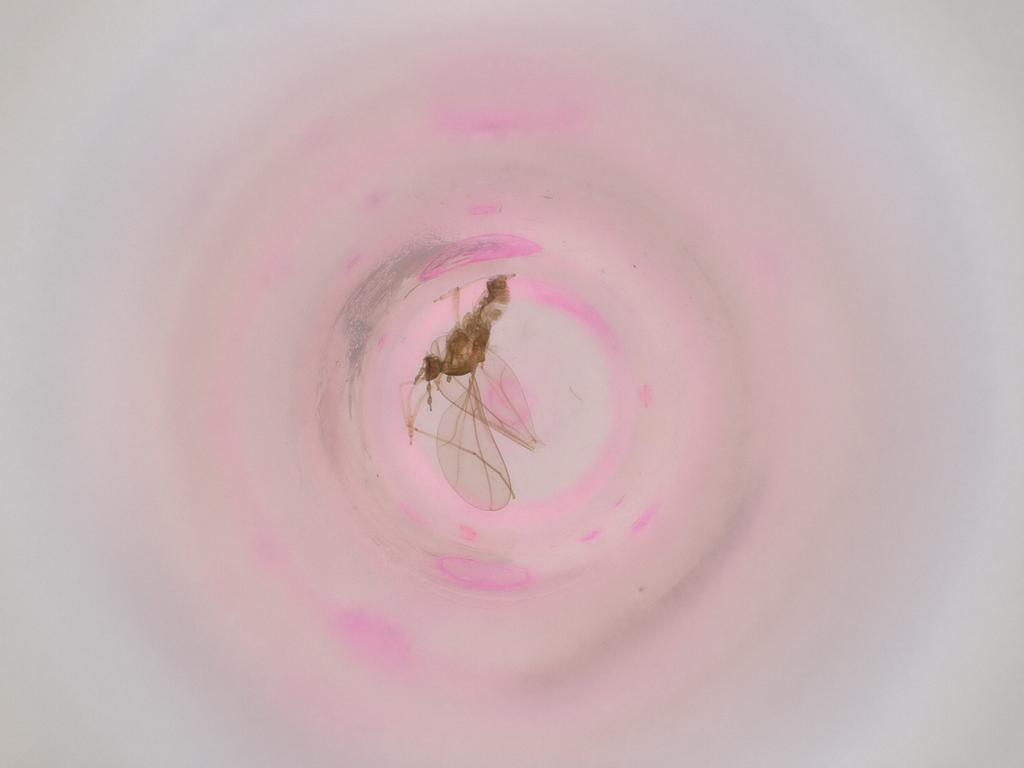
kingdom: Animalia
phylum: Arthropoda
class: Insecta
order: Diptera
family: Cecidomyiidae
